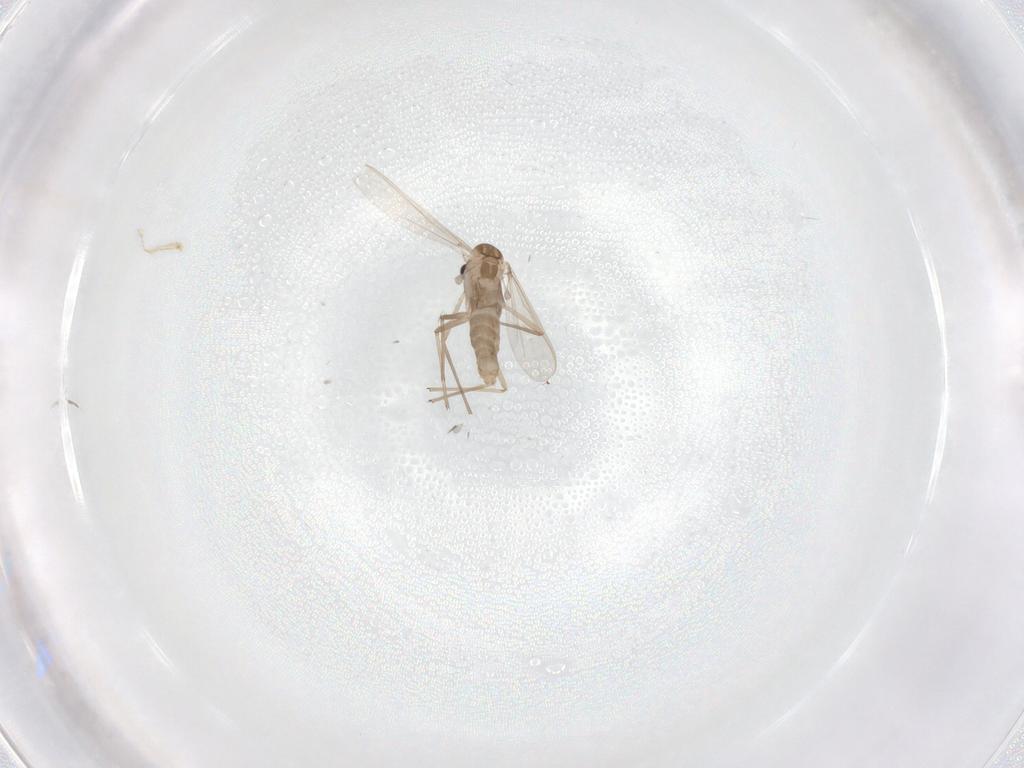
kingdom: Animalia
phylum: Arthropoda
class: Insecta
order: Diptera
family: Chironomidae
